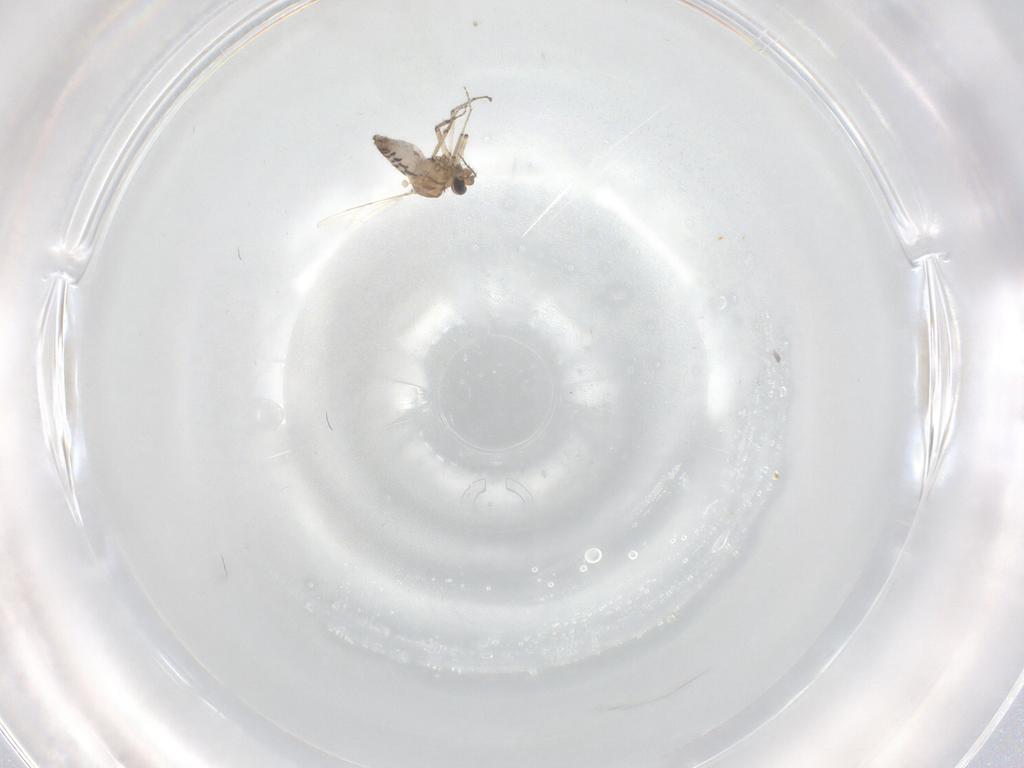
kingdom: Animalia
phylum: Arthropoda
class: Insecta
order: Diptera
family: Ceratopogonidae
